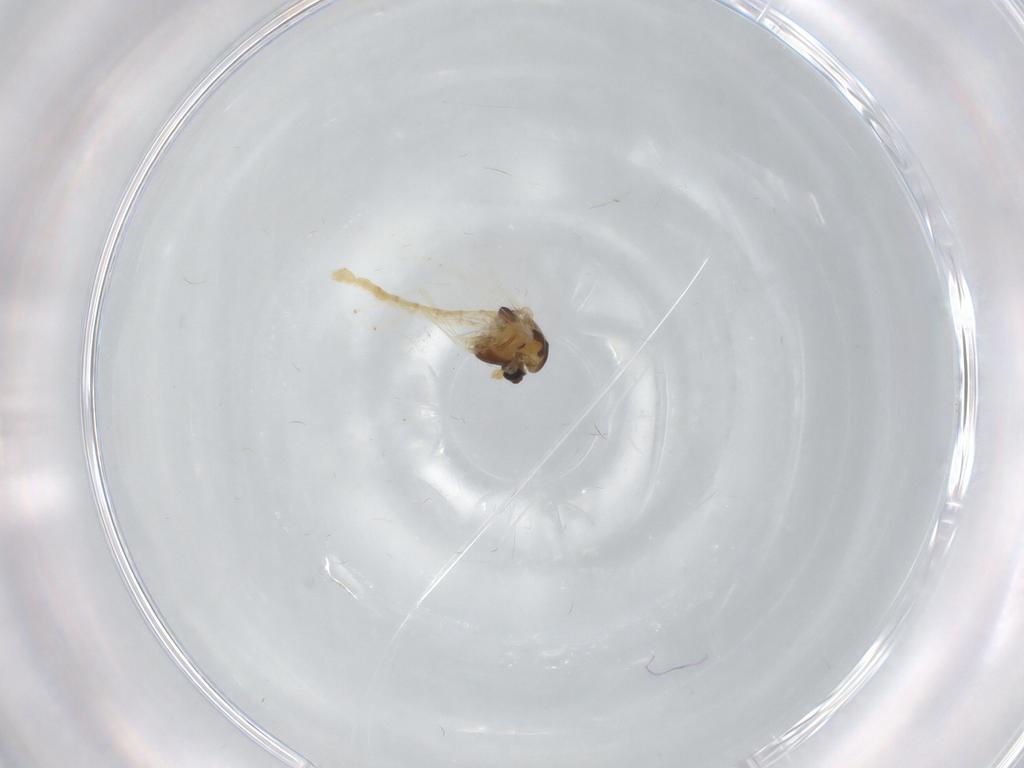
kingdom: Animalia
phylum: Arthropoda
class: Insecta
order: Diptera
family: Chironomidae
